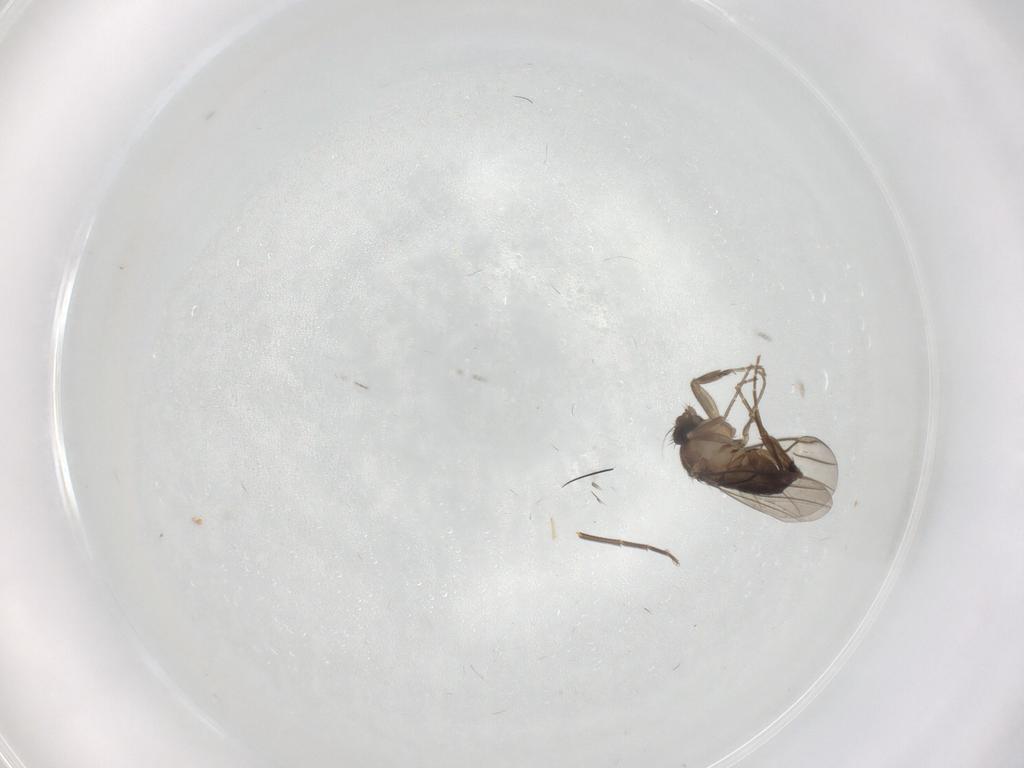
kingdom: Animalia
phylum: Arthropoda
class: Insecta
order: Diptera
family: Phoridae
